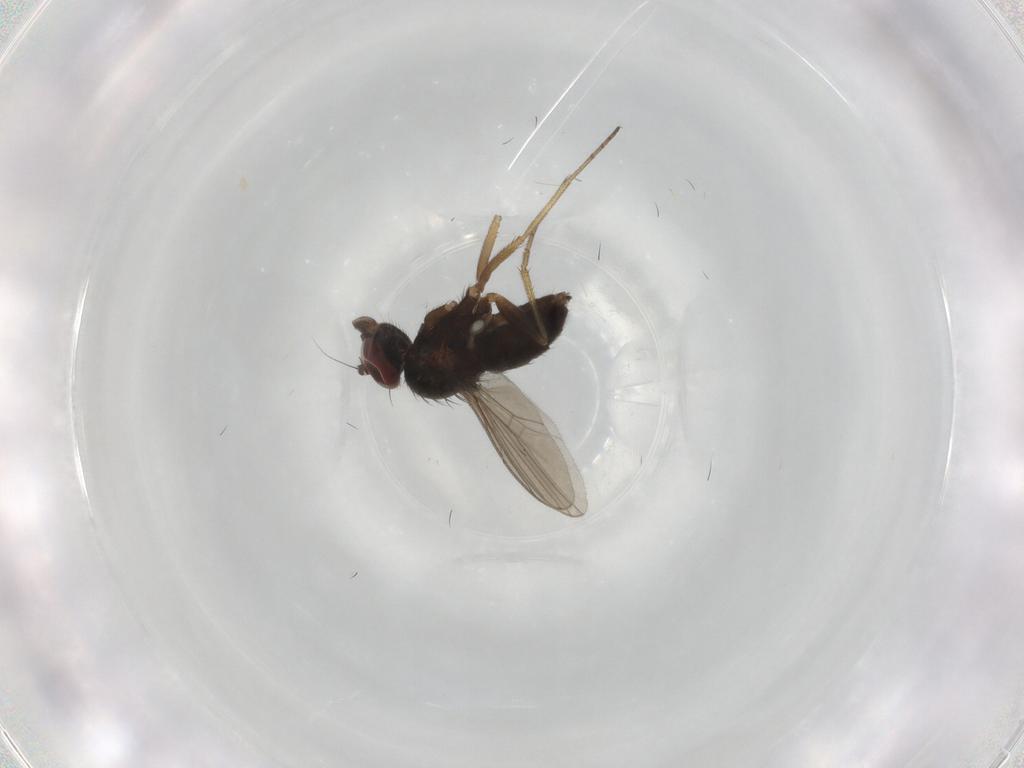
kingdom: Animalia
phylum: Arthropoda
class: Insecta
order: Diptera
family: Dolichopodidae
